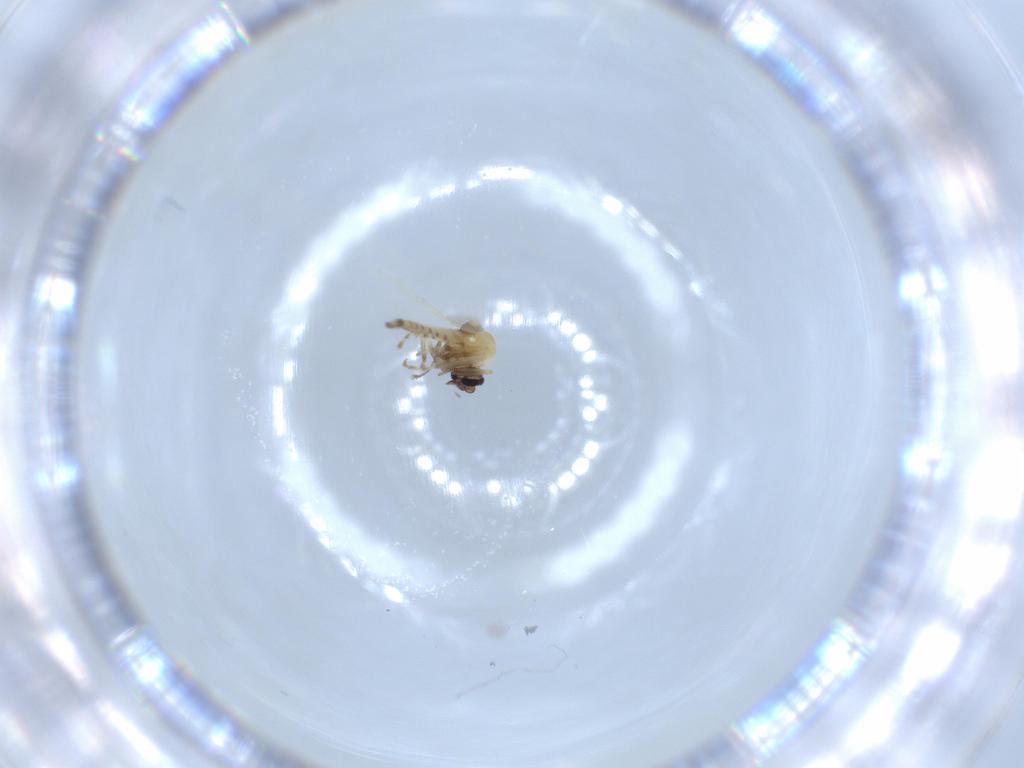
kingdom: Animalia
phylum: Arthropoda
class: Insecta
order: Diptera
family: Ceratopogonidae
